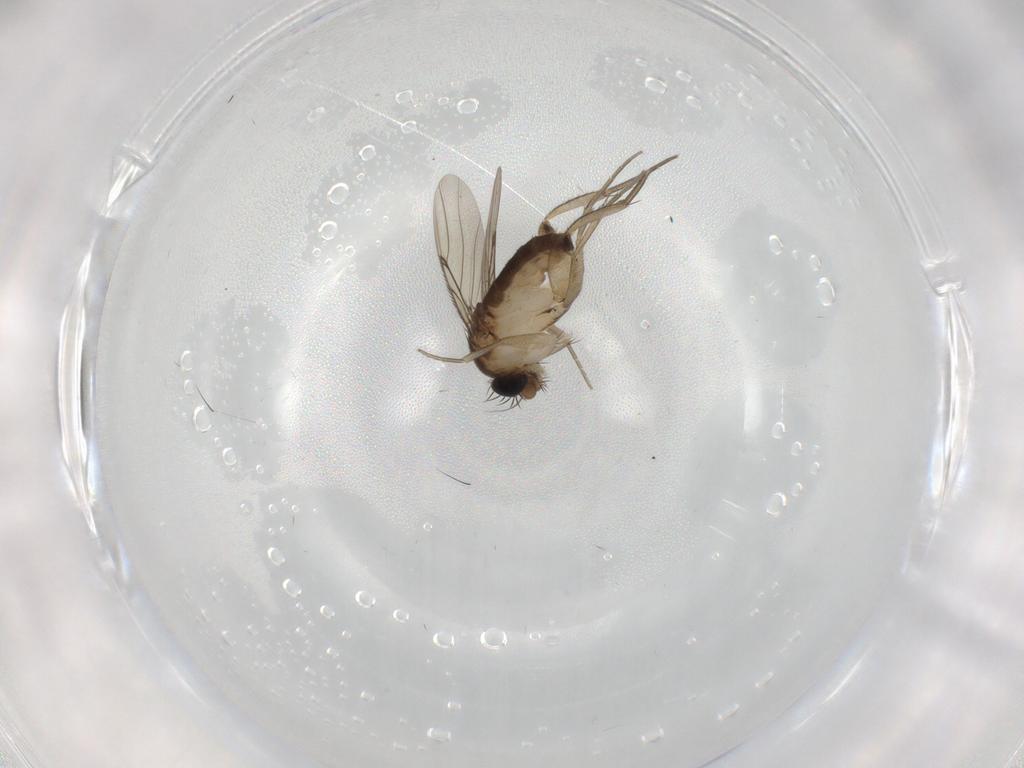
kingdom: Animalia
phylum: Arthropoda
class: Insecta
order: Diptera
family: Phoridae
